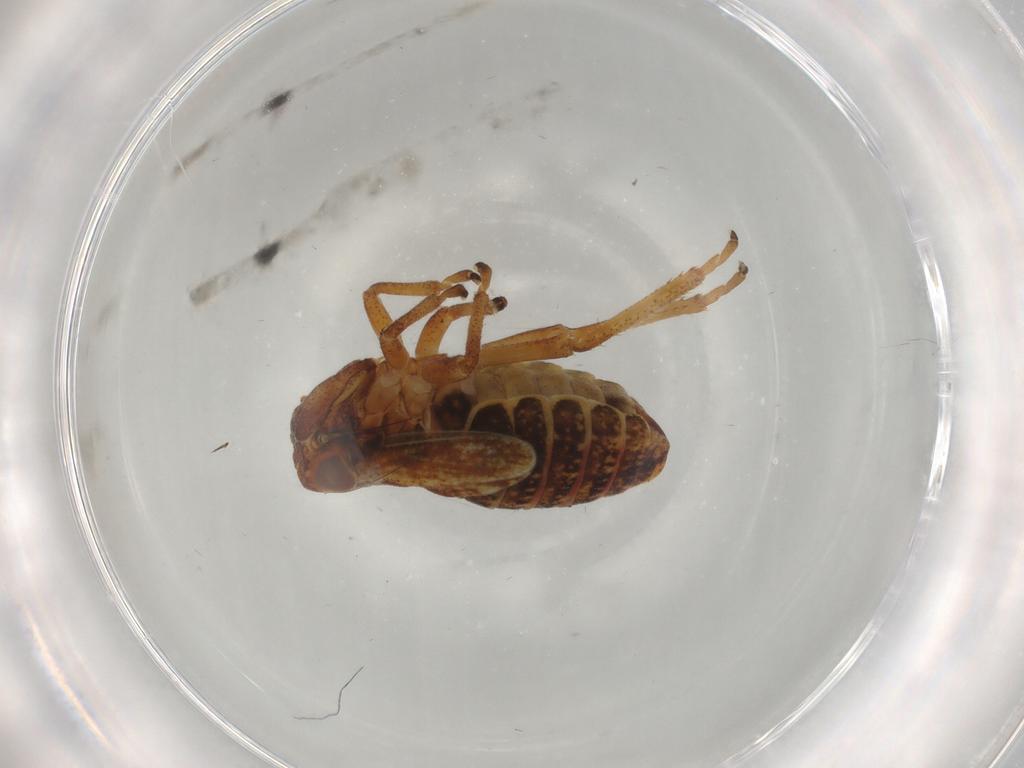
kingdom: Animalia
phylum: Arthropoda
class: Insecta
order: Hemiptera
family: Cicadellidae
